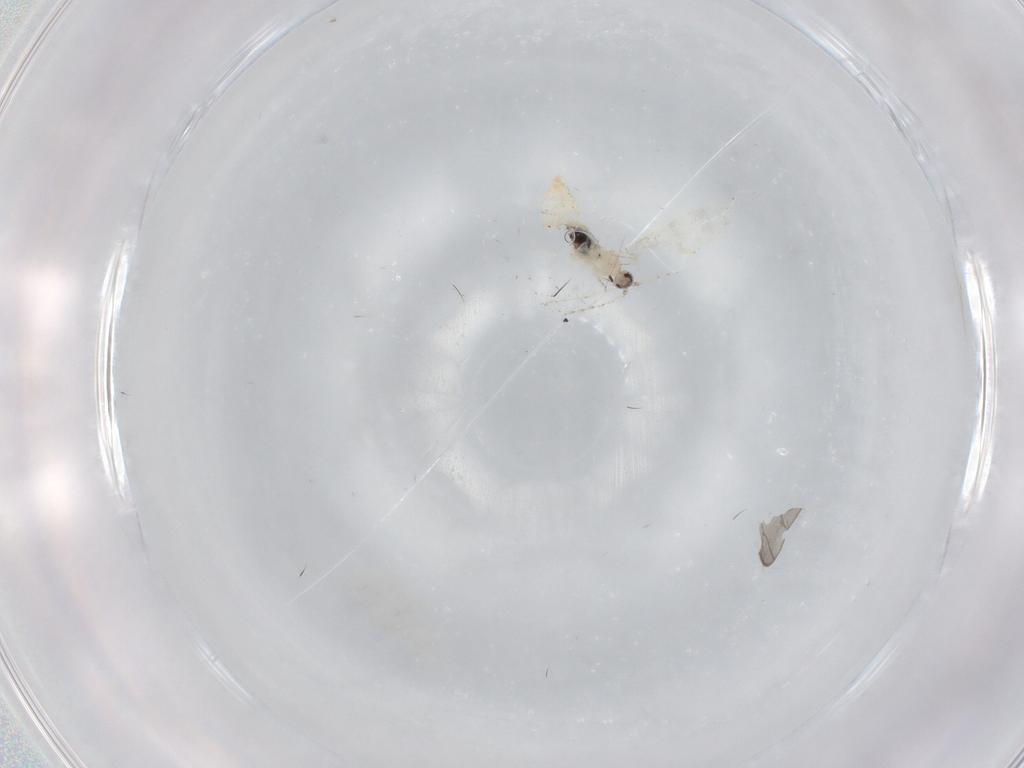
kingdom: Animalia
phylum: Arthropoda
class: Insecta
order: Diptera
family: Cecidomyiidae
